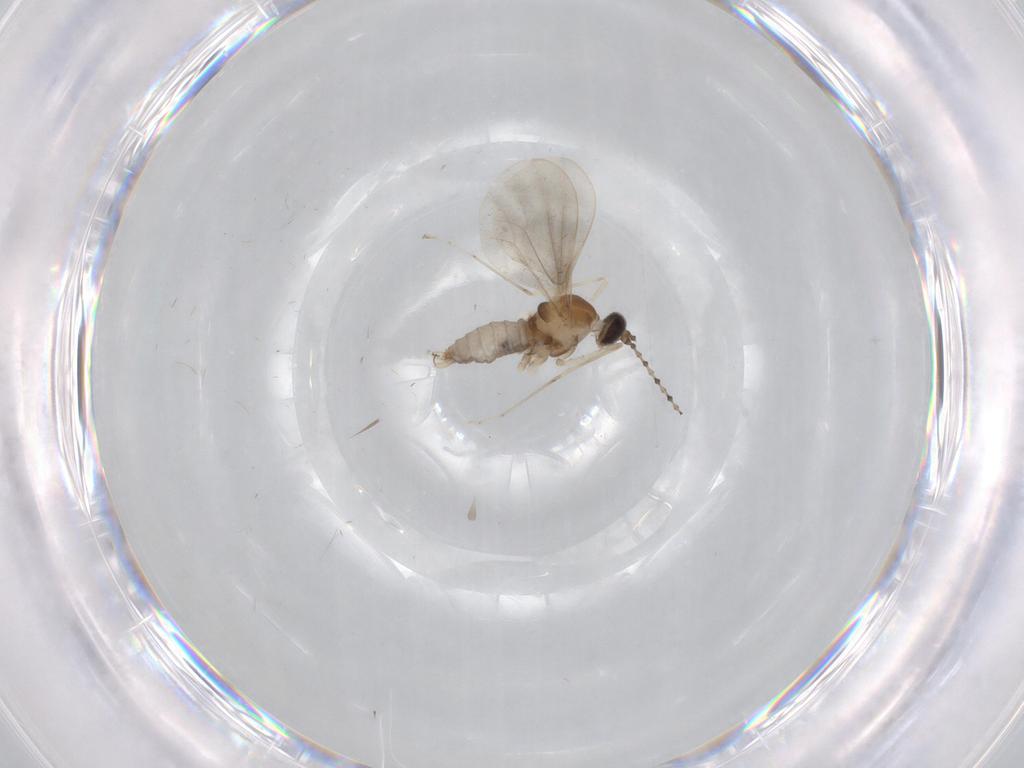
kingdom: Animalia
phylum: Arthropoda
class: Insecta
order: Diptera
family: Cecidomyiidae
